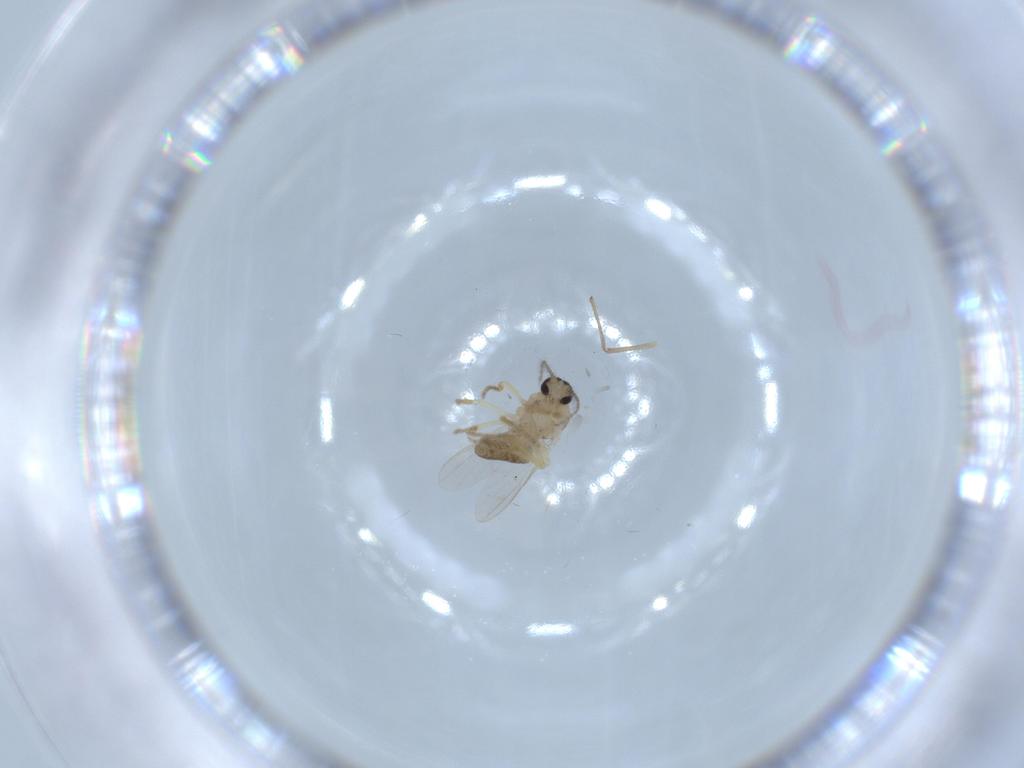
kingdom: Animalia
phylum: Arthropoda
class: Insecta
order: Diptera
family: Ceratopogonidae
